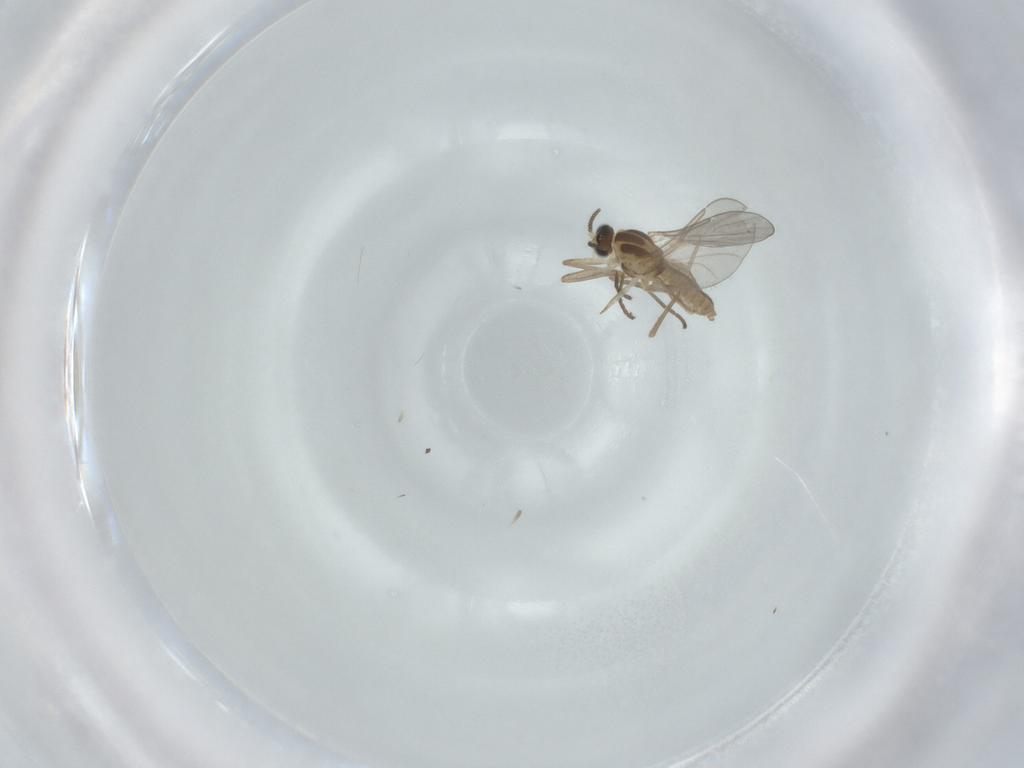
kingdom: Animalia
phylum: Arthropoda
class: Insecta
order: Diptera
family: Cecidomyiidae
